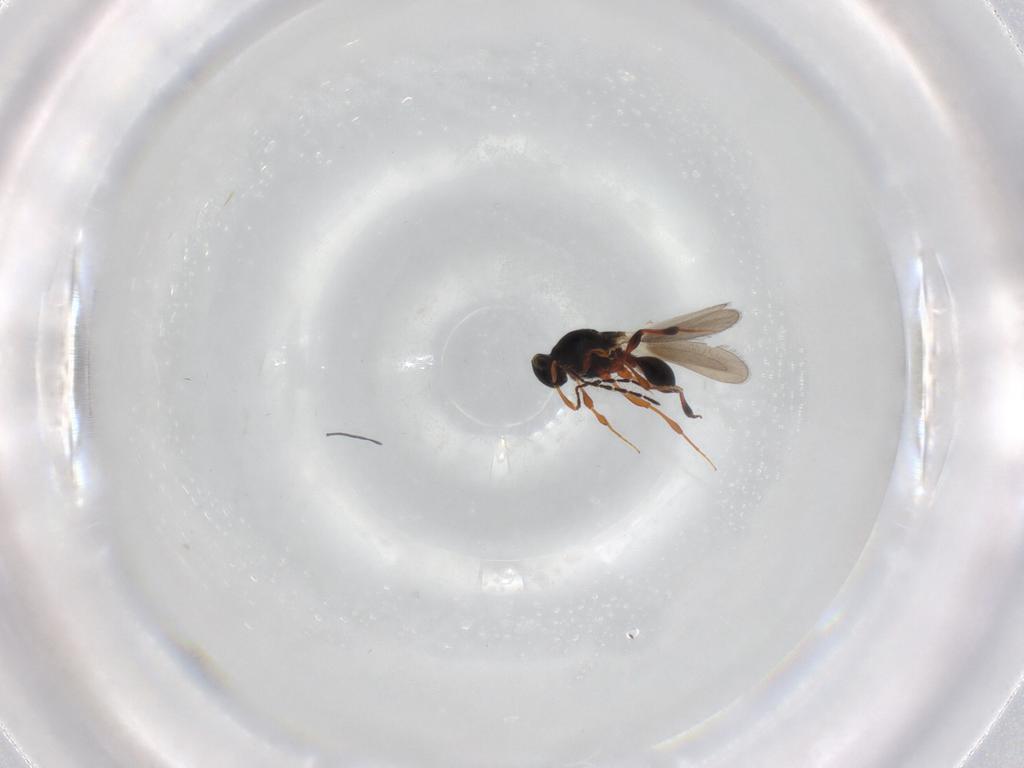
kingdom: Animalia
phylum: Arthropoda
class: Insecta
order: Hymenoptera
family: Platygastridae
